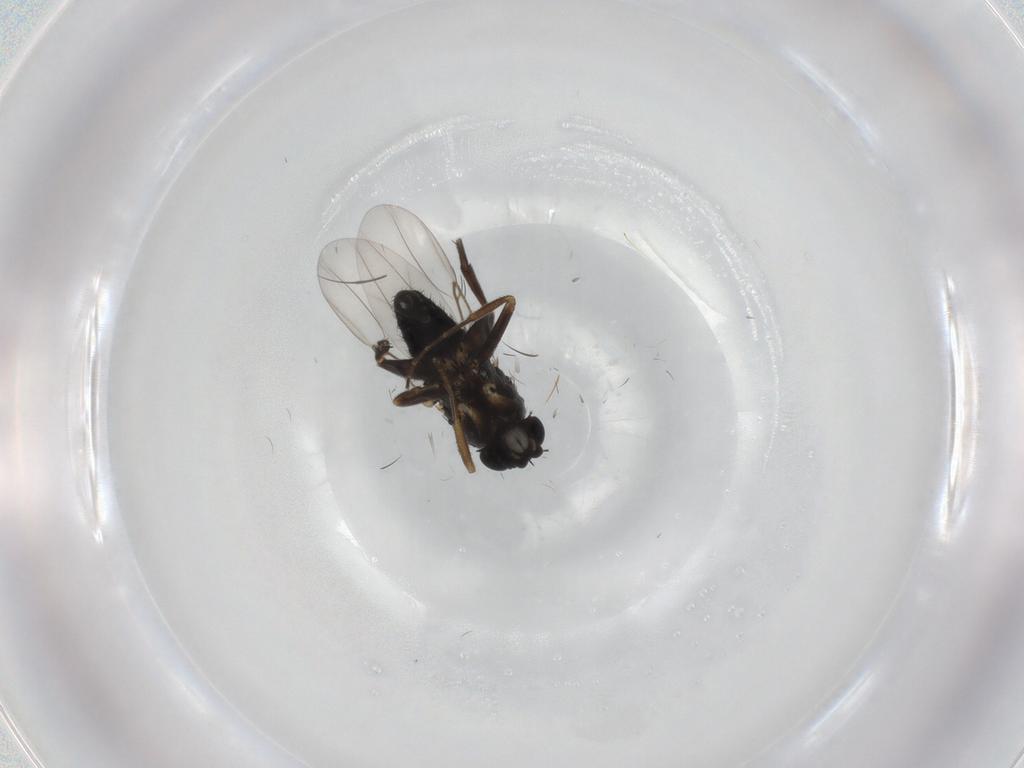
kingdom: Animalia
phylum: Arthropoda
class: Insecta
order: Diptera
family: Phoridae
